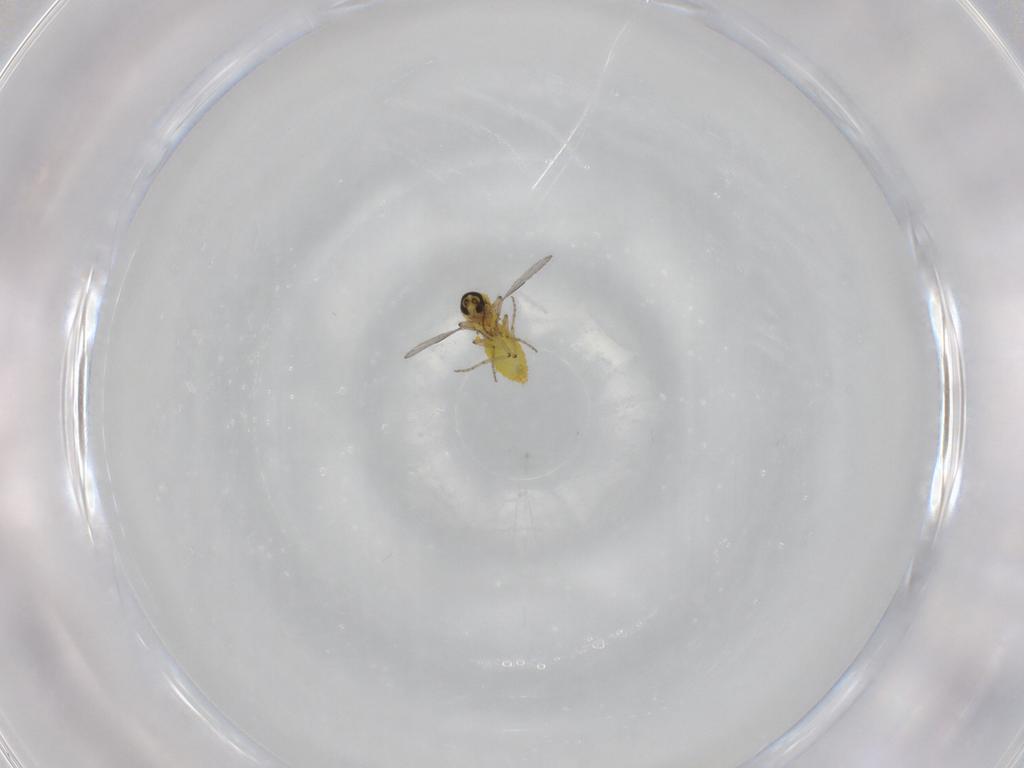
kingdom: Animalia
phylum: Arthropoda
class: Insecta
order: Diptera
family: Ceratopogonidae
